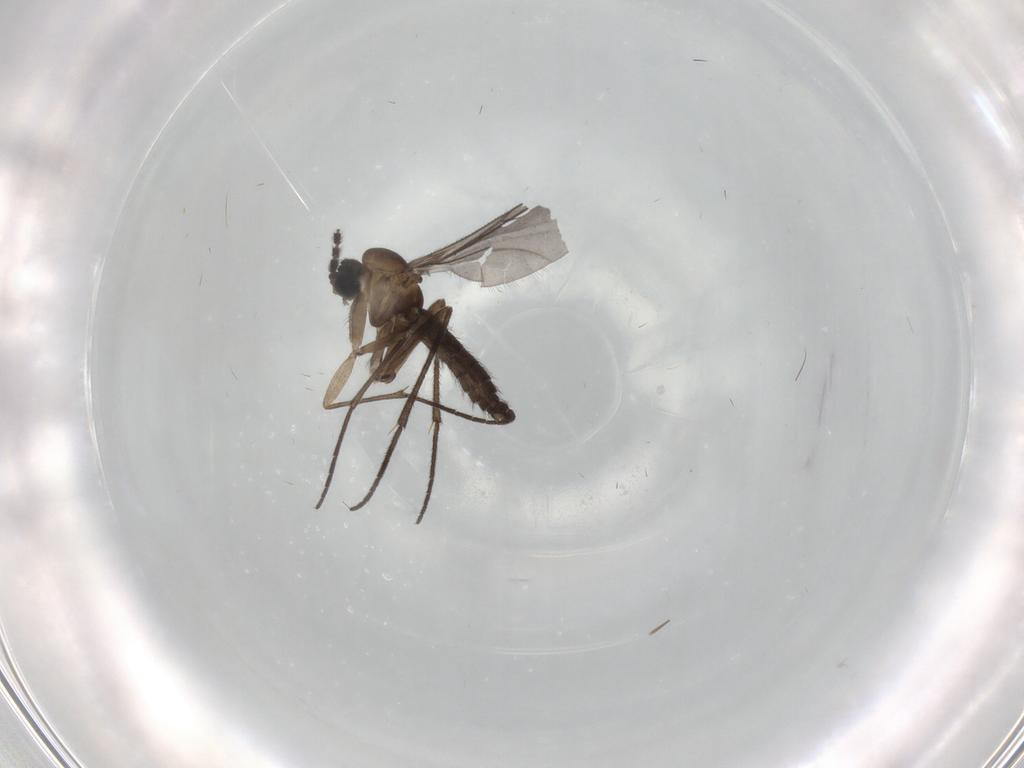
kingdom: Animalia
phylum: Arthropoda
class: Insecta
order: Diptera
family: Sciaridae
